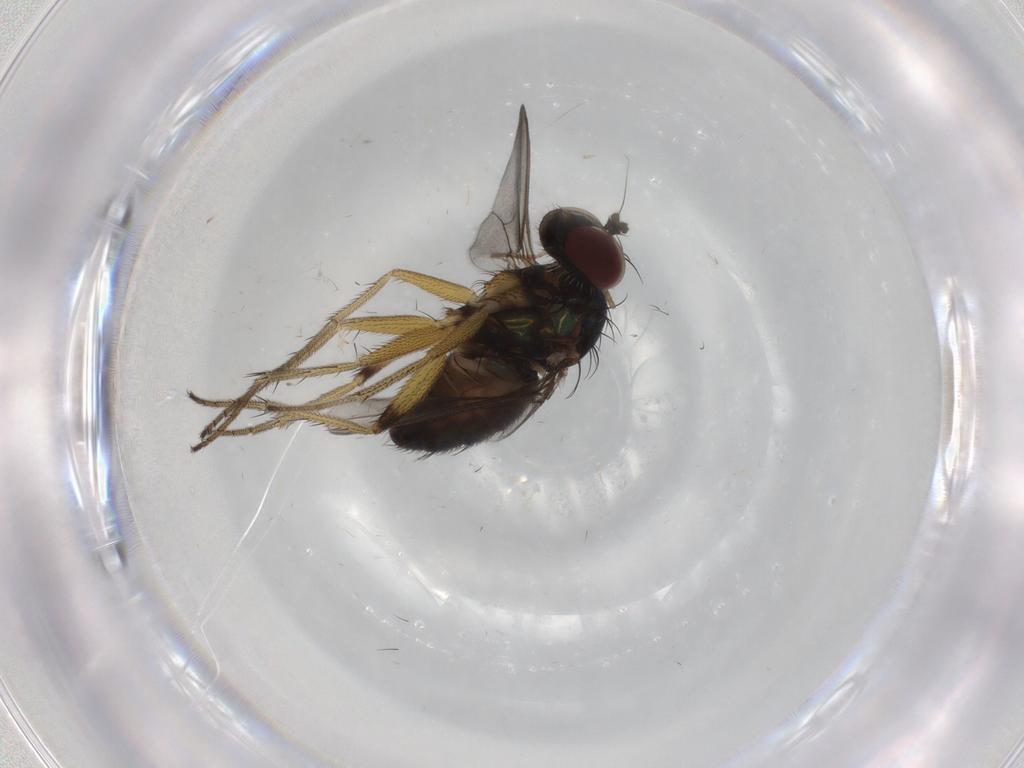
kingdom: Animalia
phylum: Arthropoda
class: Insecta
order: Diptera
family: Dolichopodidae
